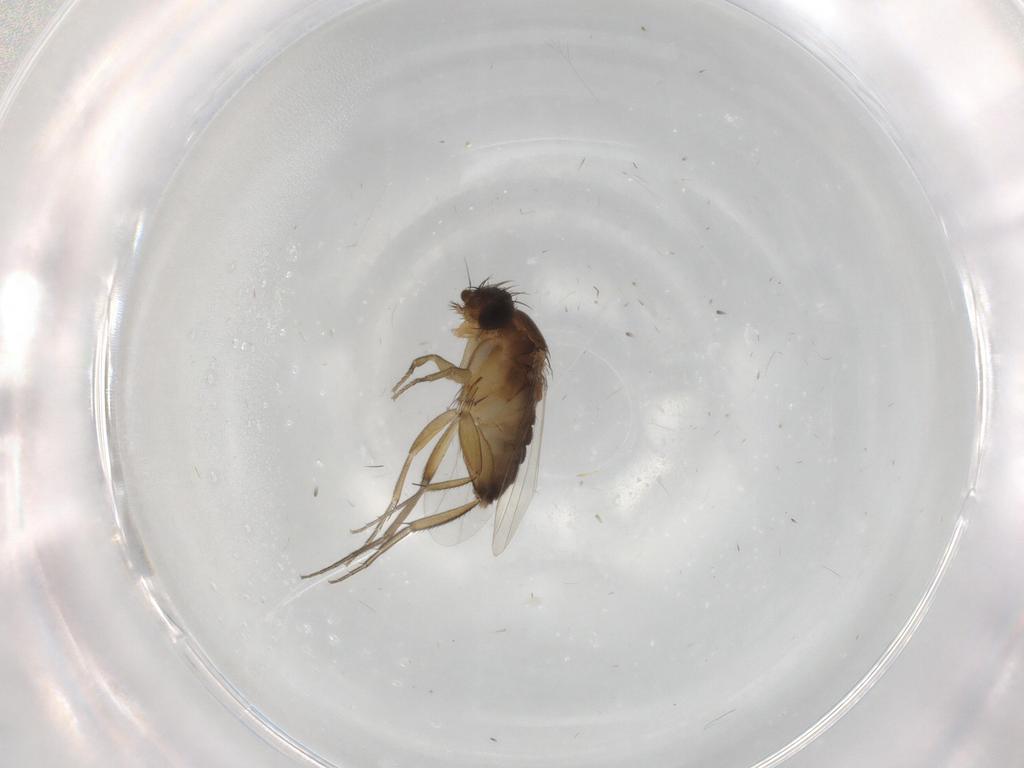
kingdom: Animalia
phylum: Arthropoda
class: Insecta
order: Diptera
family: Phoridae
